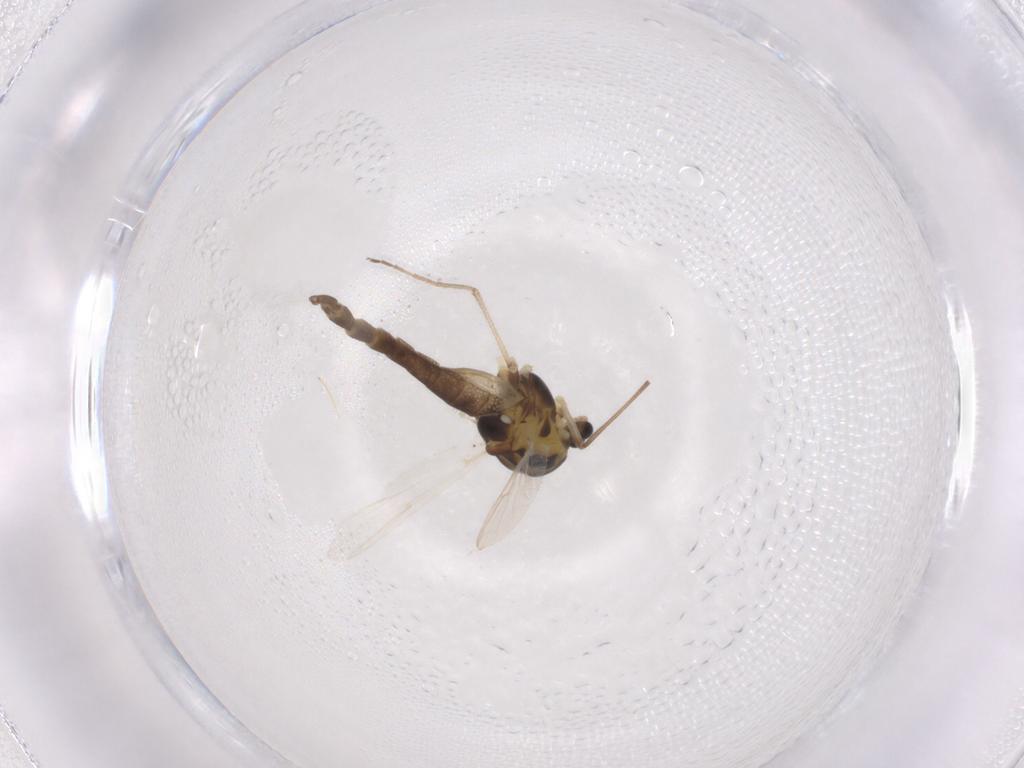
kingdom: Animalia
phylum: Arthropoda
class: Insecta
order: Diptera
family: Chironomidae
